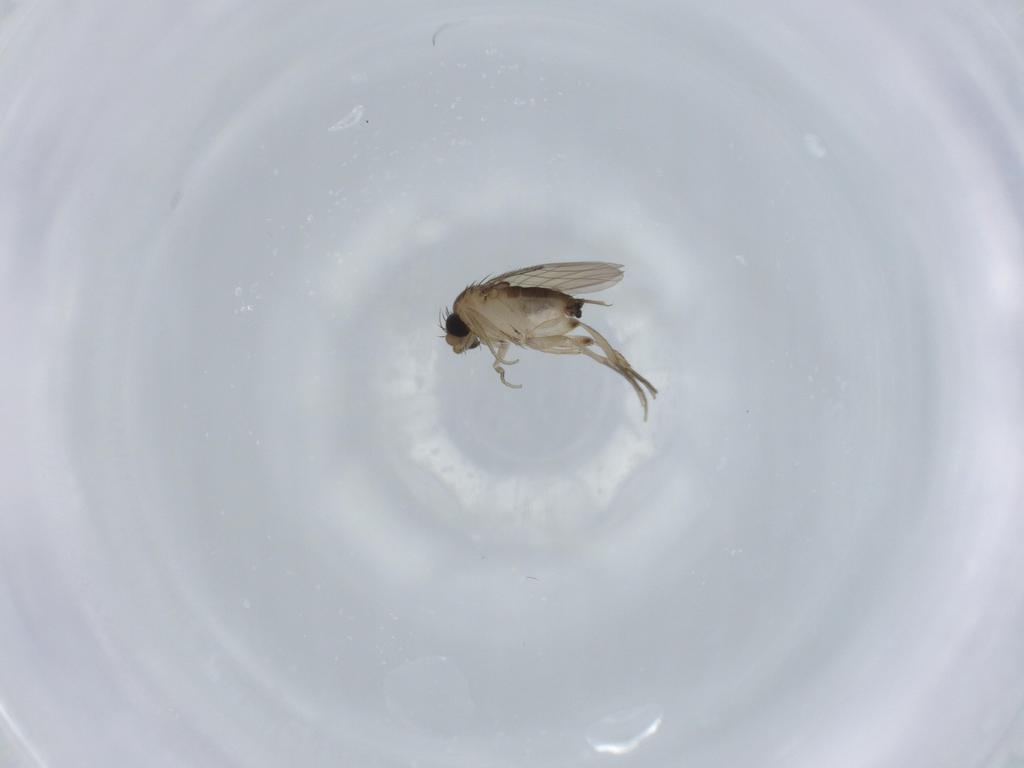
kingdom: Animalia
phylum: Arthropoda
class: Insecta
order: Diptera
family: Phoridae
